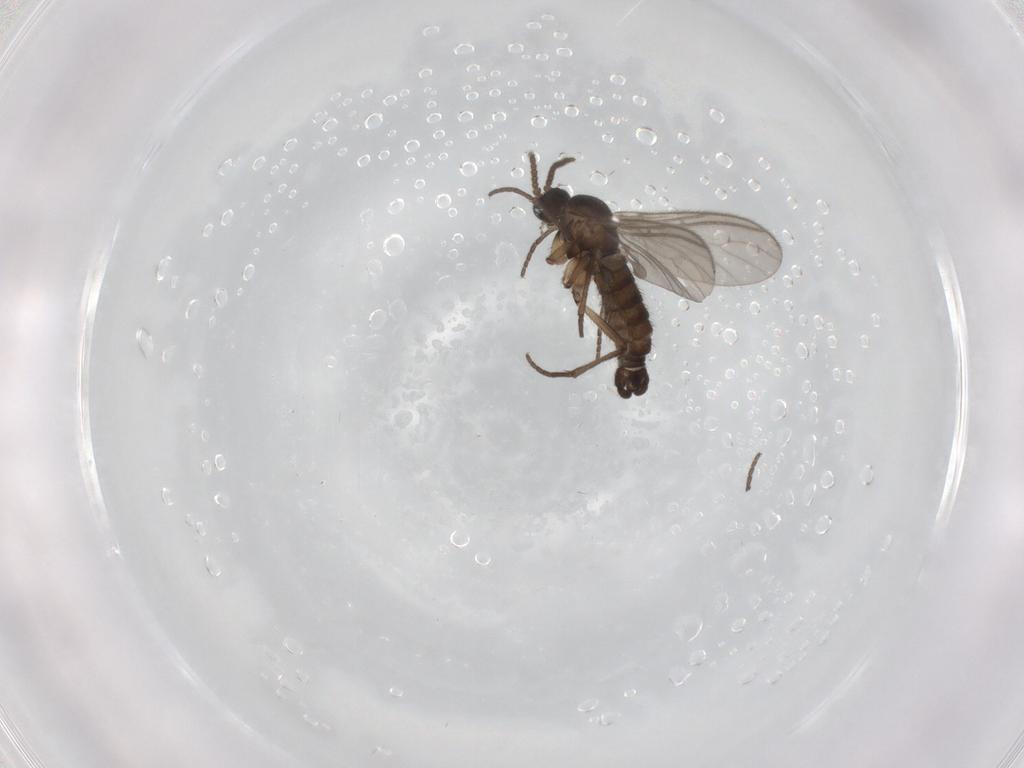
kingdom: Animalia
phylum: Arthropoda
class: Insecta
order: Diptera
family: Sciaridae
